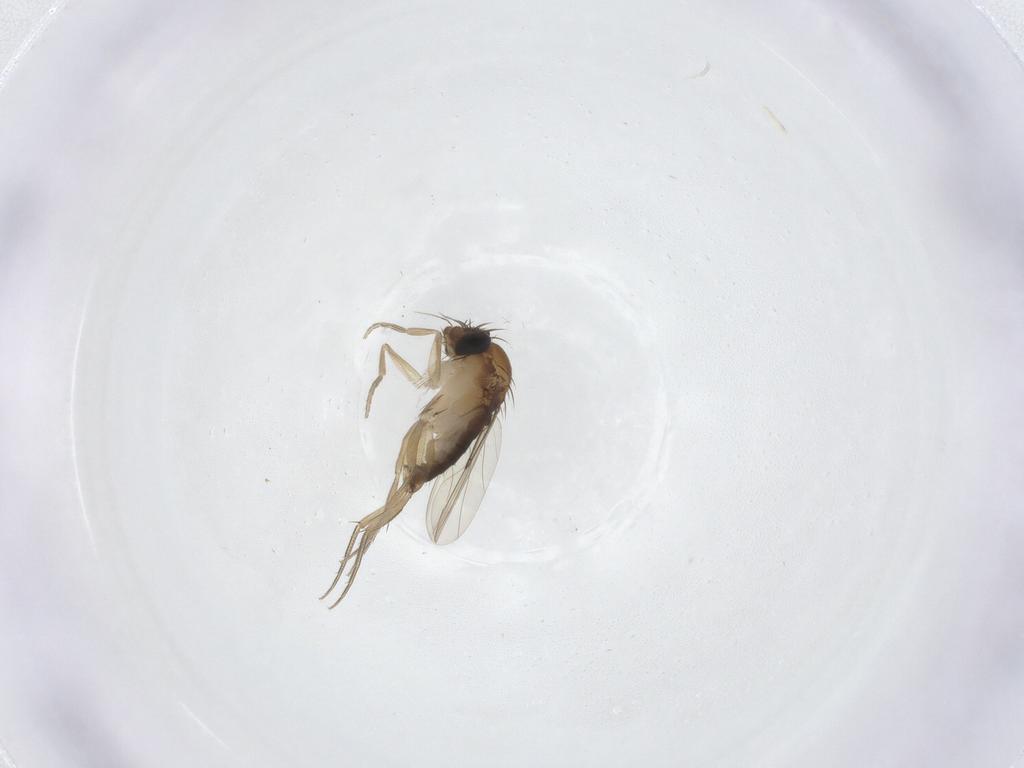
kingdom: Animalia
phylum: Arthropoda
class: Insecta
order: Diptera
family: Phoridae
